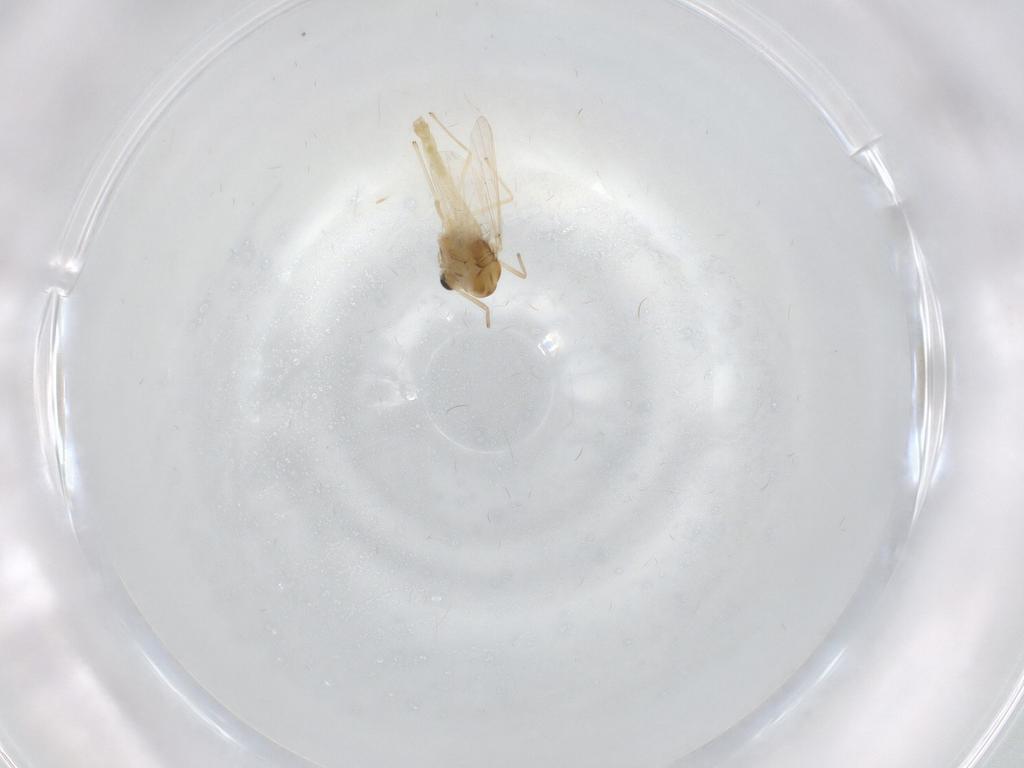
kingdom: Animalia
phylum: Arthropoda
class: Insecta
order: Diptera
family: Chironomidae
